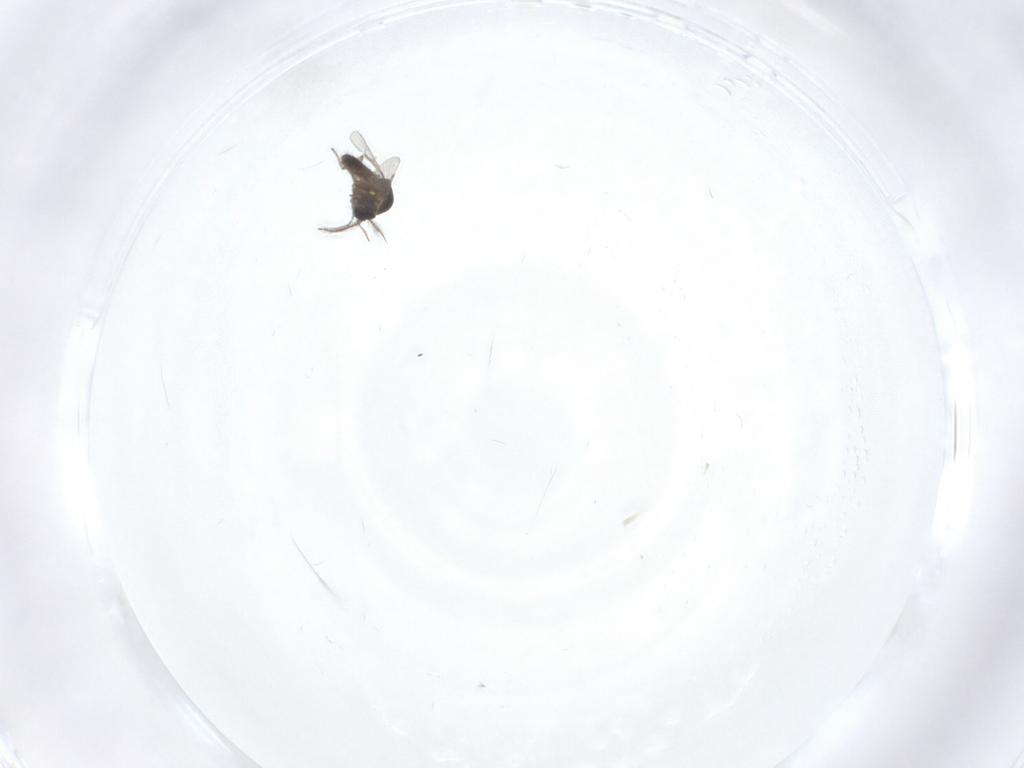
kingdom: Animalia
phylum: Arthropoda
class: Insecta
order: Diptera
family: Ceratopogonidae
